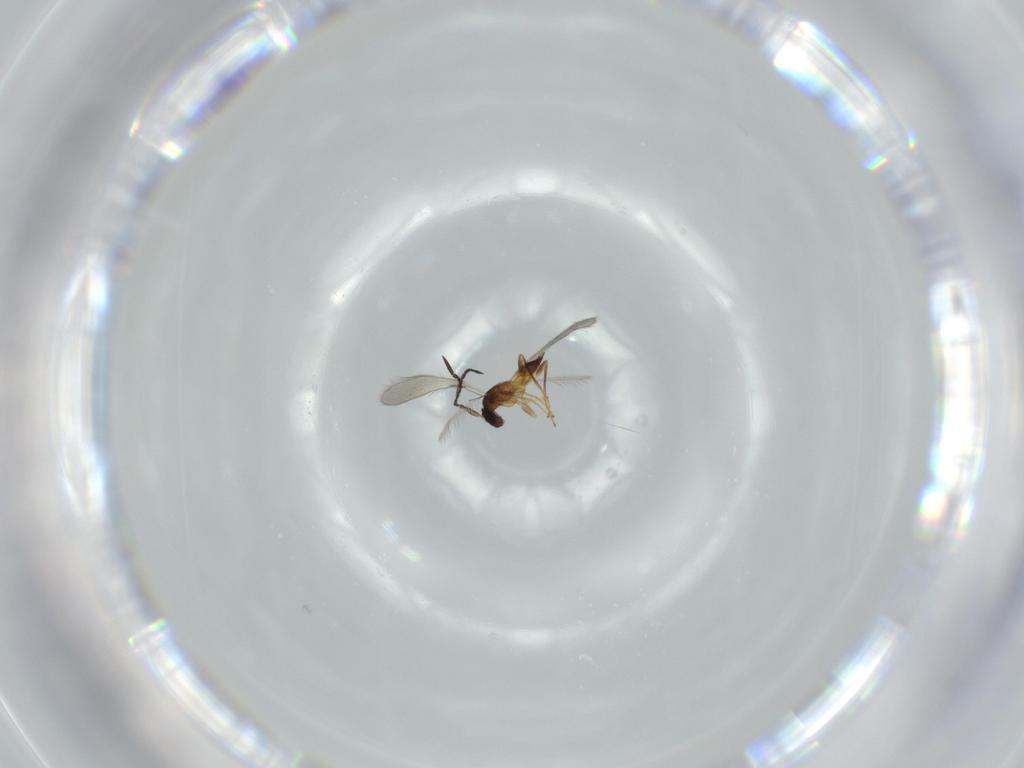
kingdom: Animalia
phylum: Arthropoda
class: Insecta
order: Hymenoptera
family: Mymaridae
